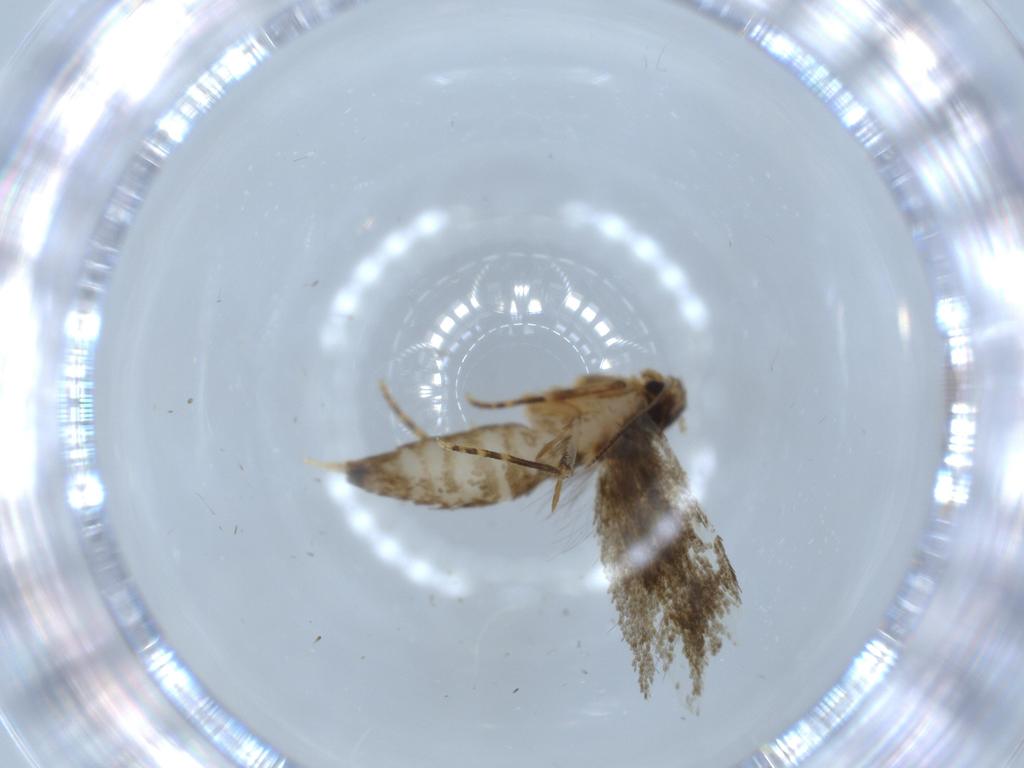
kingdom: Animalia
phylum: Arthropoda
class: Insecta
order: Lepidoptera
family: Tineidae
